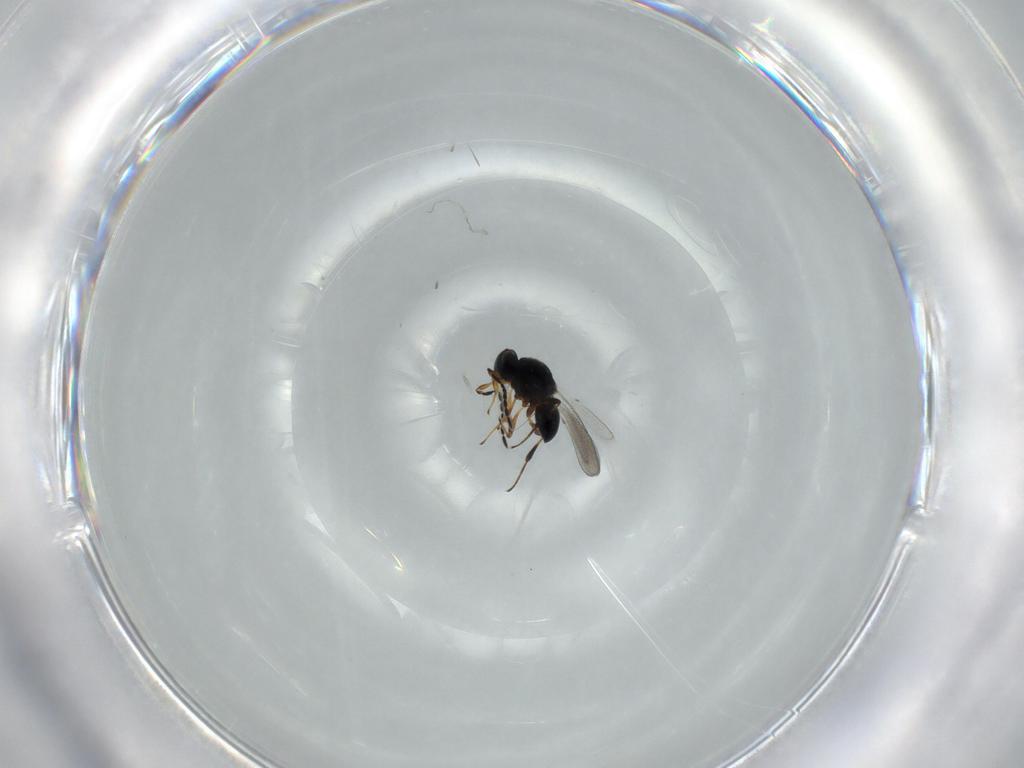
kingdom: Animalia
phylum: Arthropoda
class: Insecta
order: Hymenoptera
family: Platygastridae
